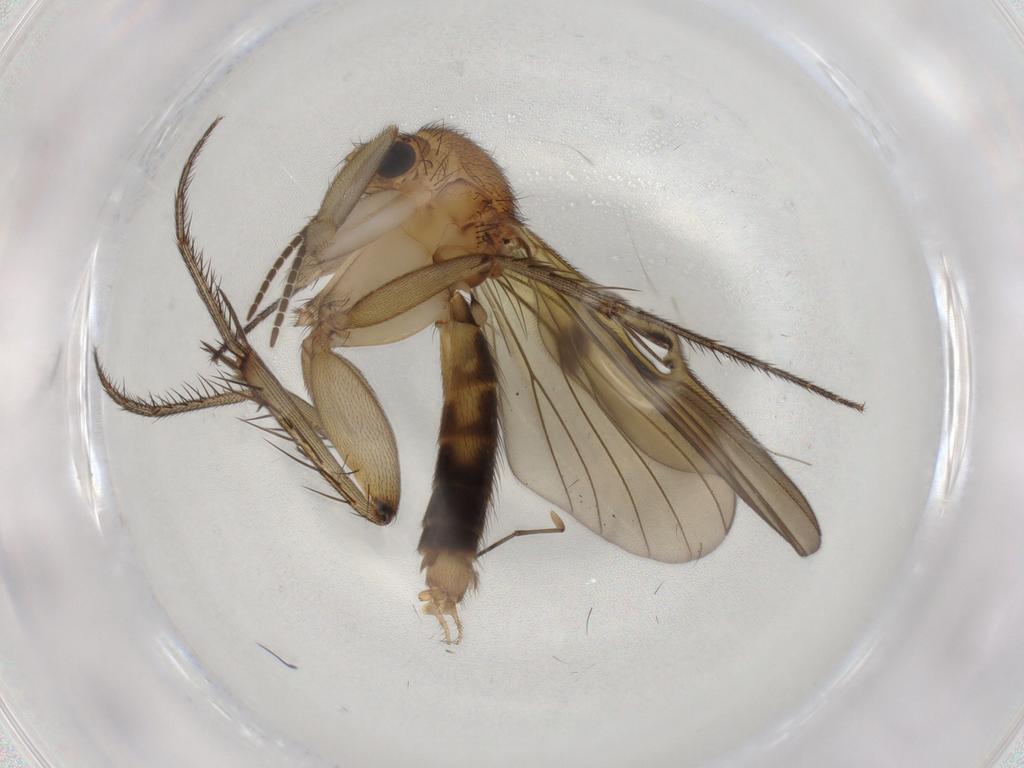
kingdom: Animalia
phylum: Arthropoda
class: Insecta
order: Diptera
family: Mycetophilidae
